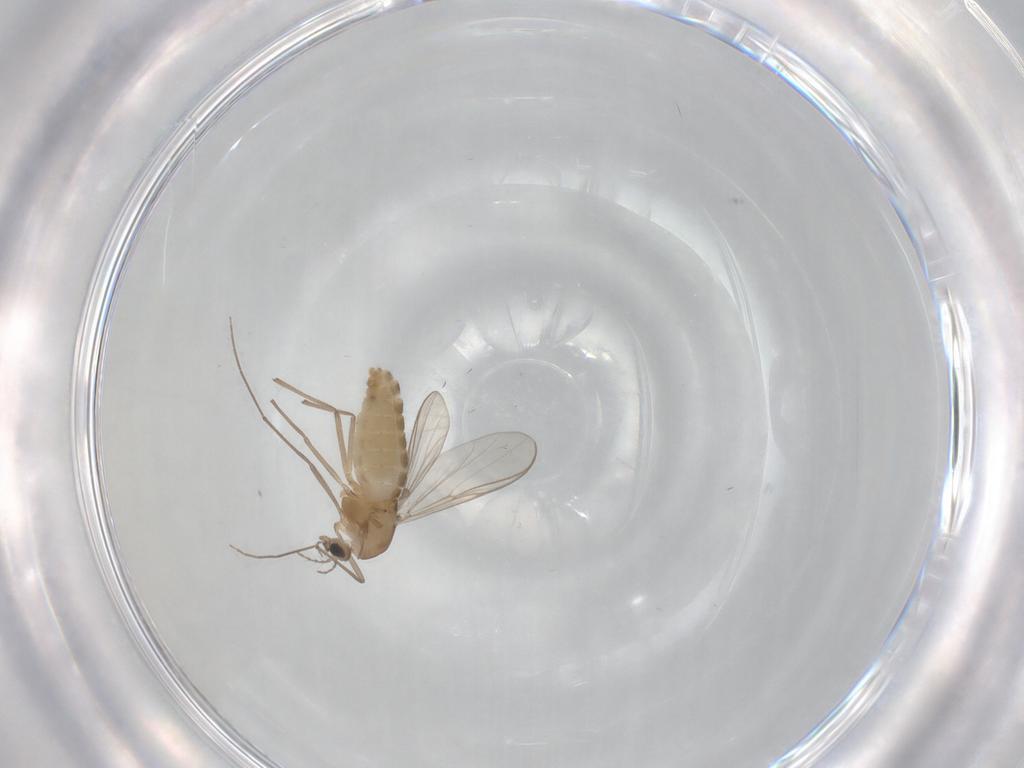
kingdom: Animalia
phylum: Arthropoda
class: Insecta
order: Diptera
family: Chironomidae
